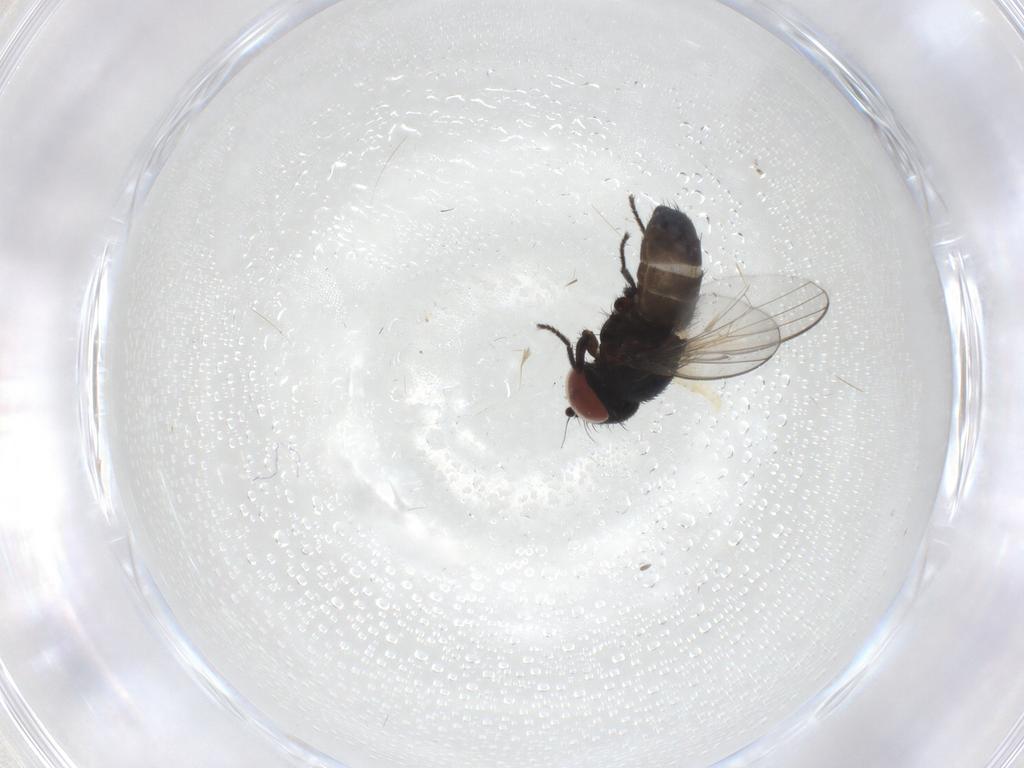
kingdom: Animalia
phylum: Arthropoda
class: Insecta
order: Diptera
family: Milichiidae
